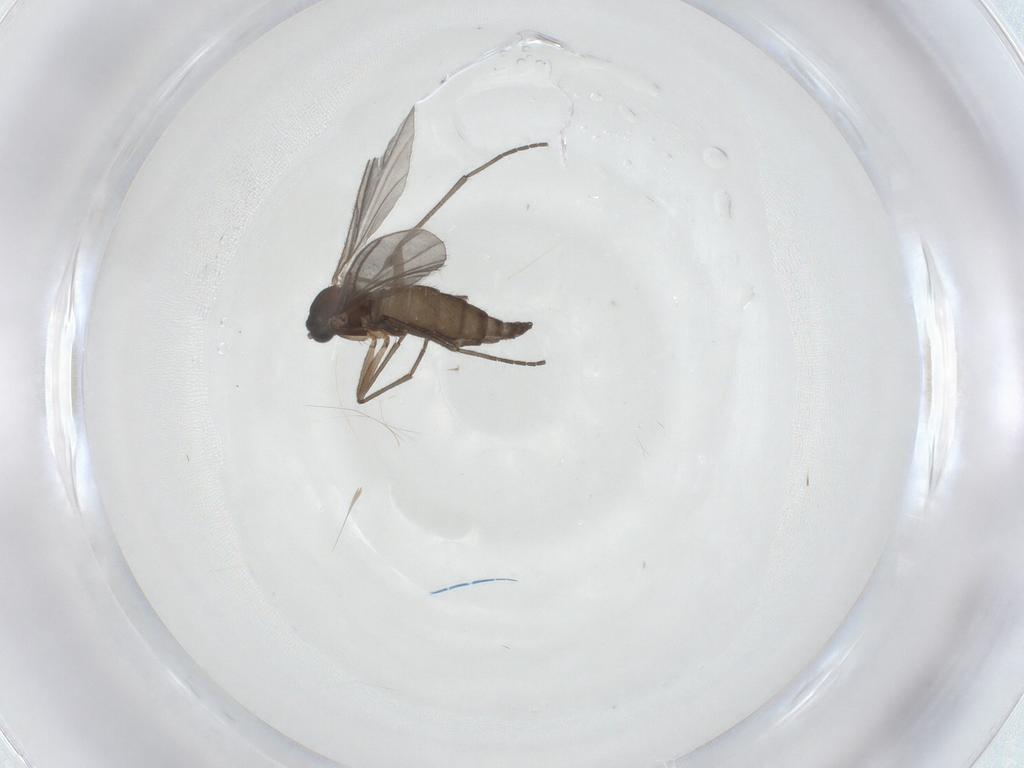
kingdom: Animalia
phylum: Arthropoda
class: Insecta
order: Diptera
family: Sciaridae
